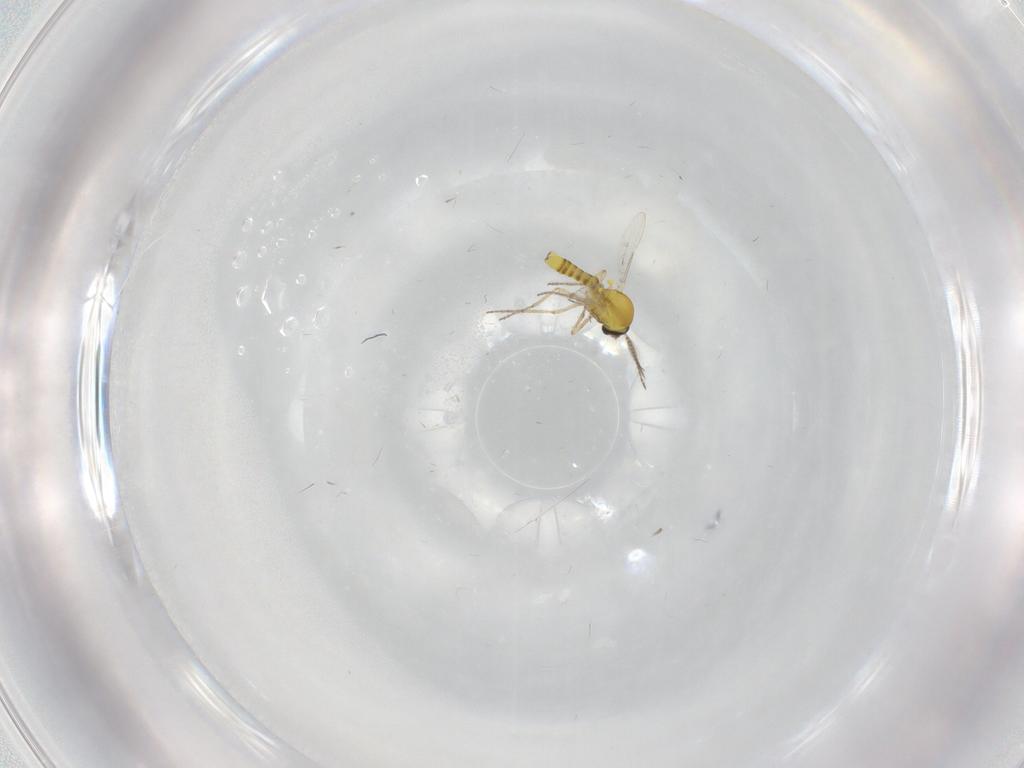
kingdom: Animalia
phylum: Arthropoda
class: Insecta
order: Diptera
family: Ceratopogonidae
